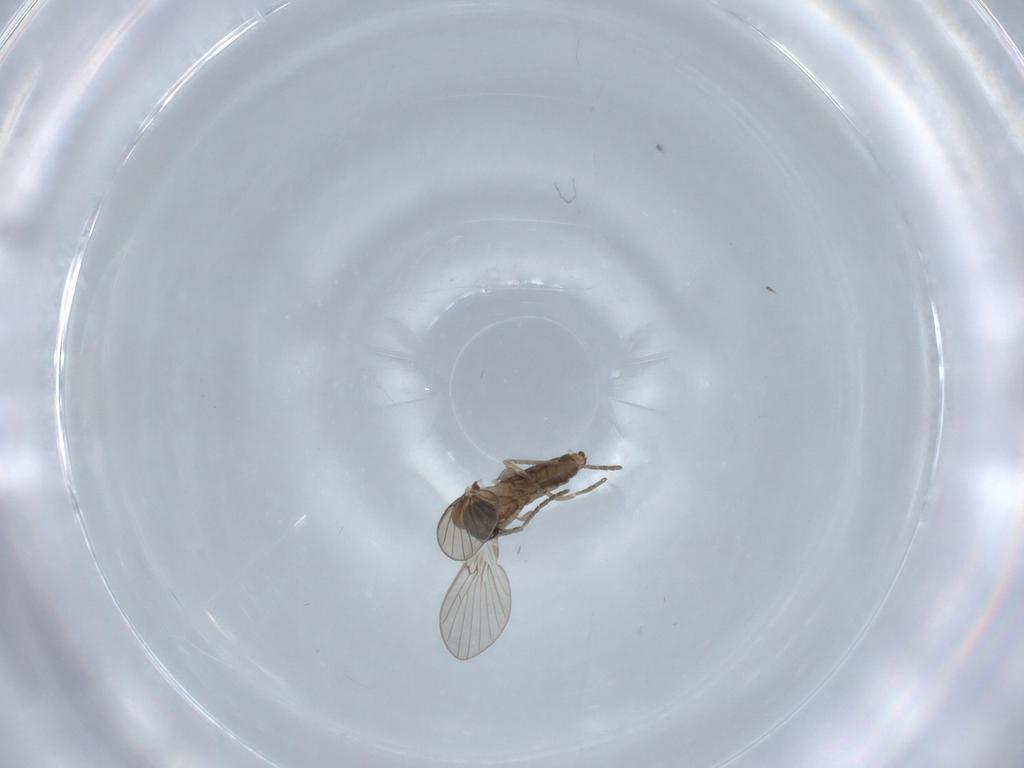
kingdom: Animalia
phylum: Arthropoda
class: Insecta
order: Diptera
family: Psychodidae
